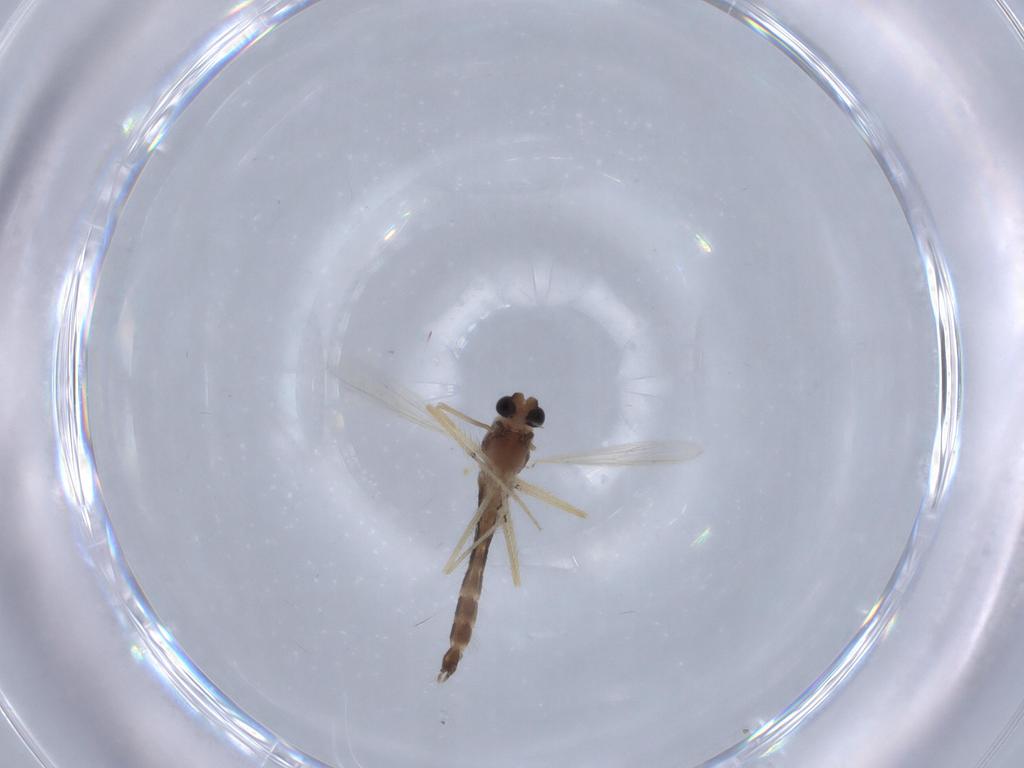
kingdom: Animalia
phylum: Arthropoda
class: Insecta
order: Diptera
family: Chironomidae
